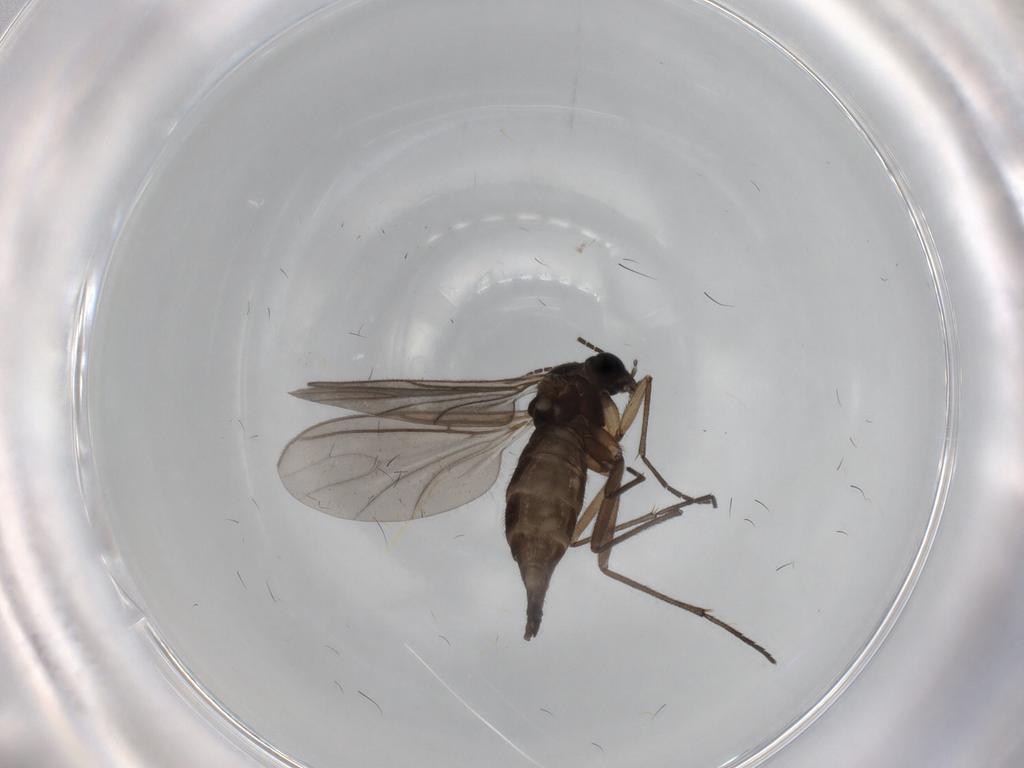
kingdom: Animalia
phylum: Arthropoda
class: Insecta
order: Diptera
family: Sciaridae
